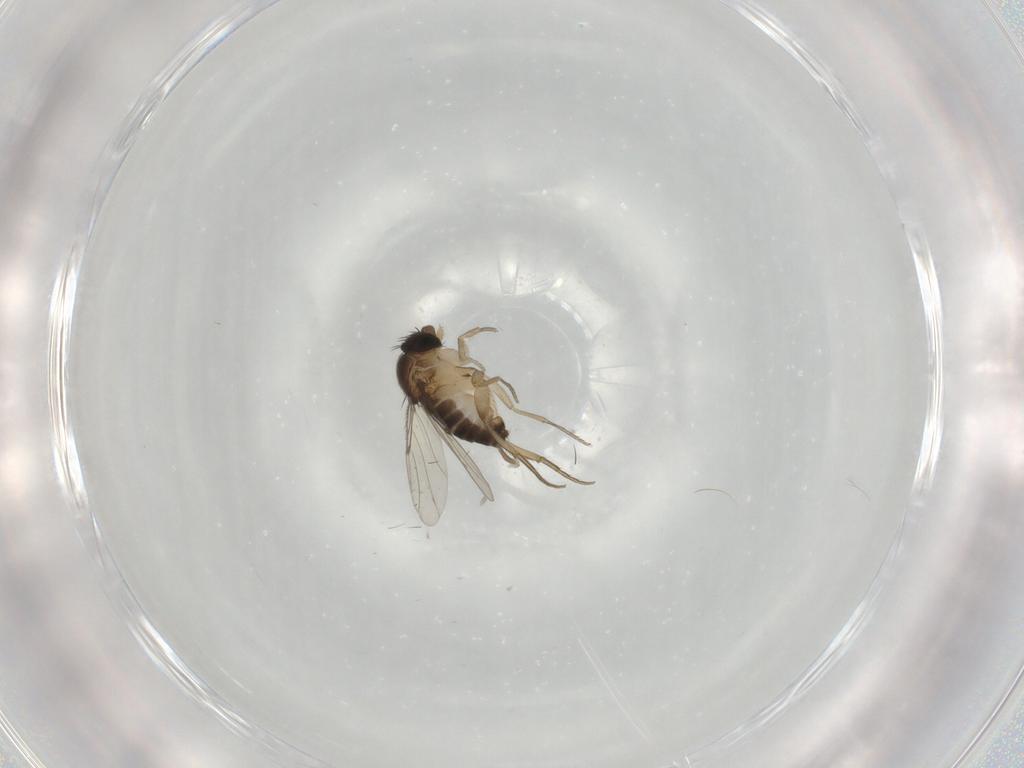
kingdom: Animalia
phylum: Arthropoda
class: Insecta
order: Diptera
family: Phoridae
